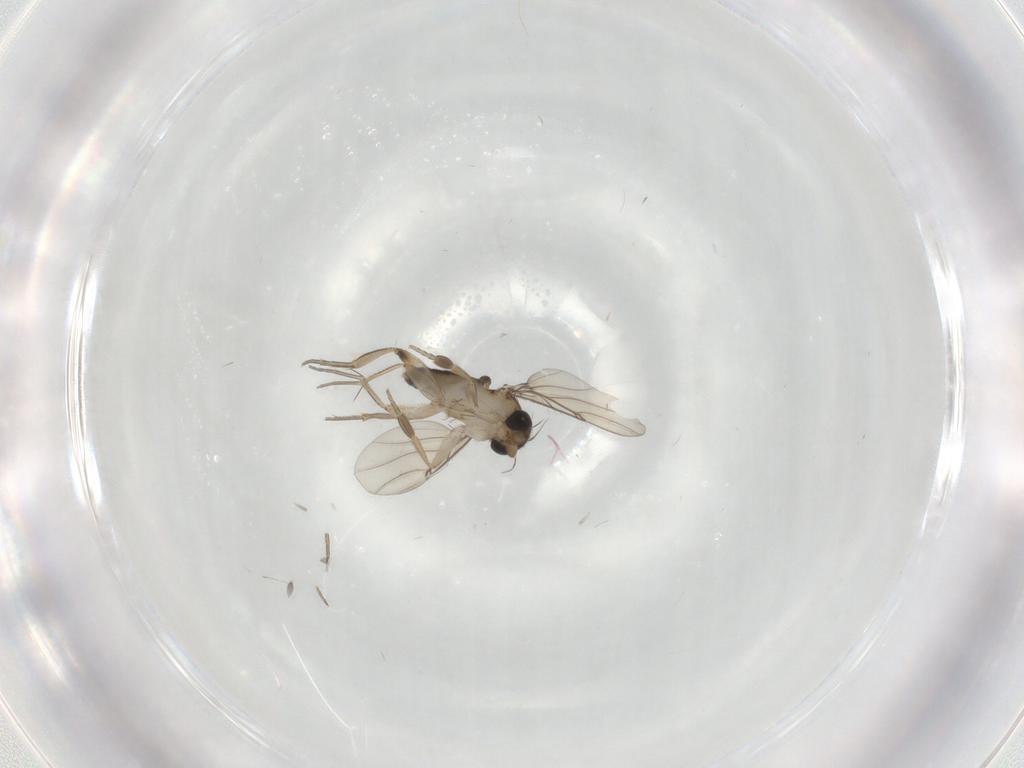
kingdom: Animalia
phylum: Arthropoda
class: Insecta
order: Diptera
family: Phoridae
